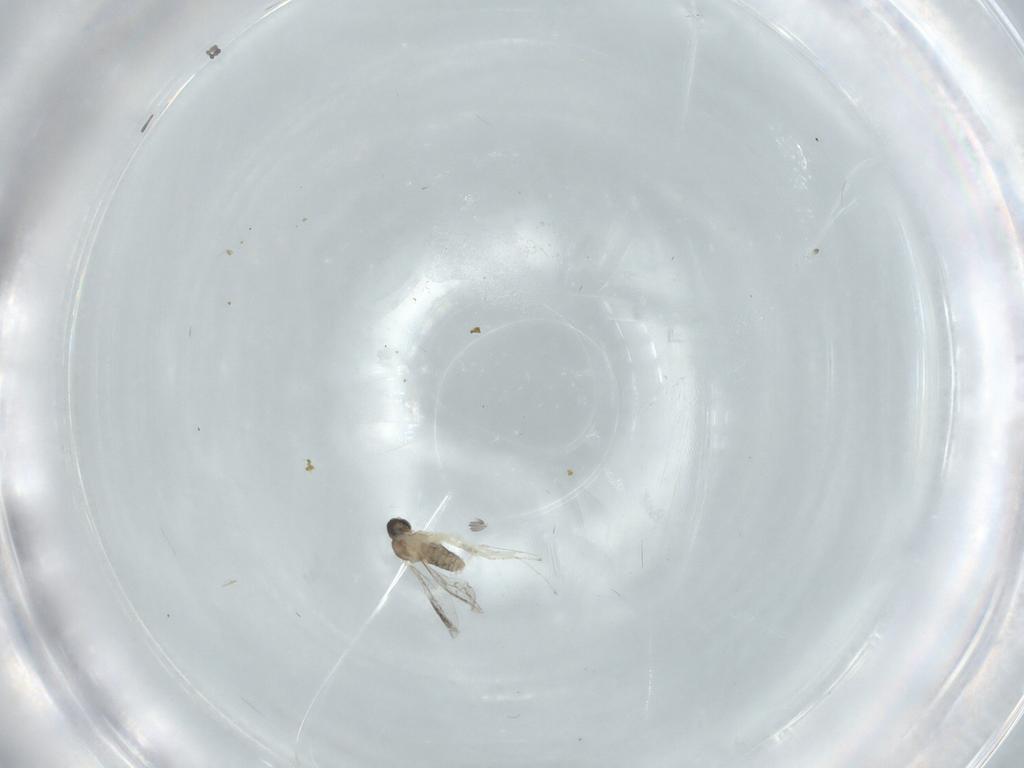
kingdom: Animalia
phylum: Arthropoda
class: Insecta
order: Diptera
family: Cecidomyiidae
